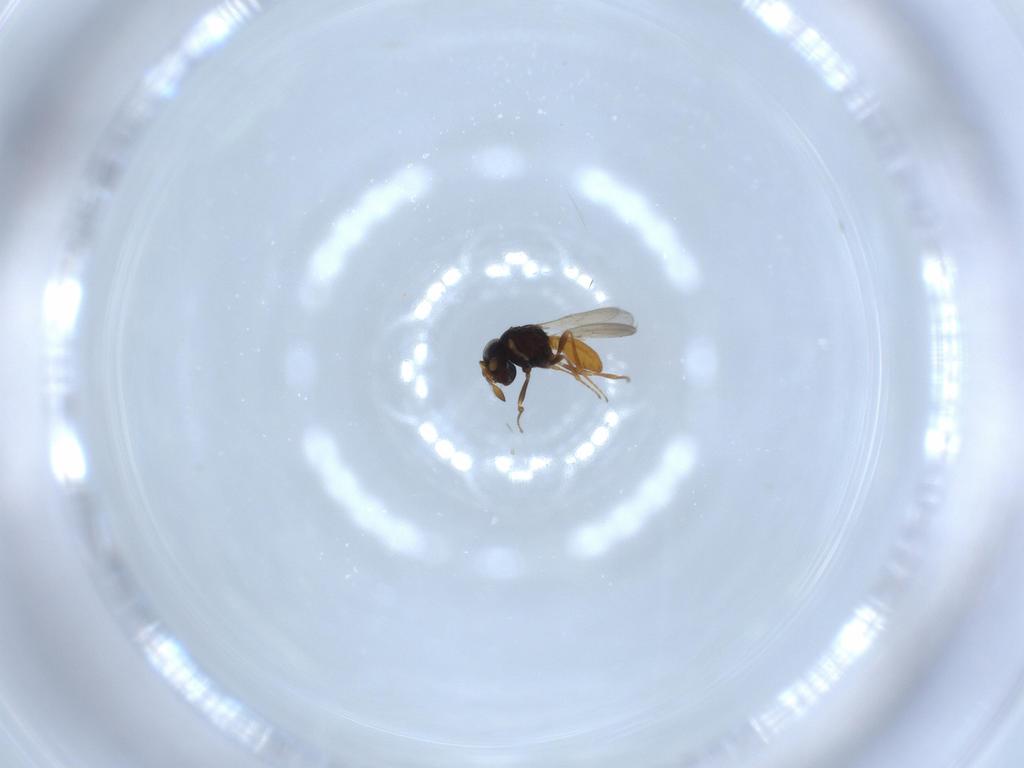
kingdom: Animalia
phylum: Arthropoda
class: Insecta
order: Hymenoptera
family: Scelionidae
